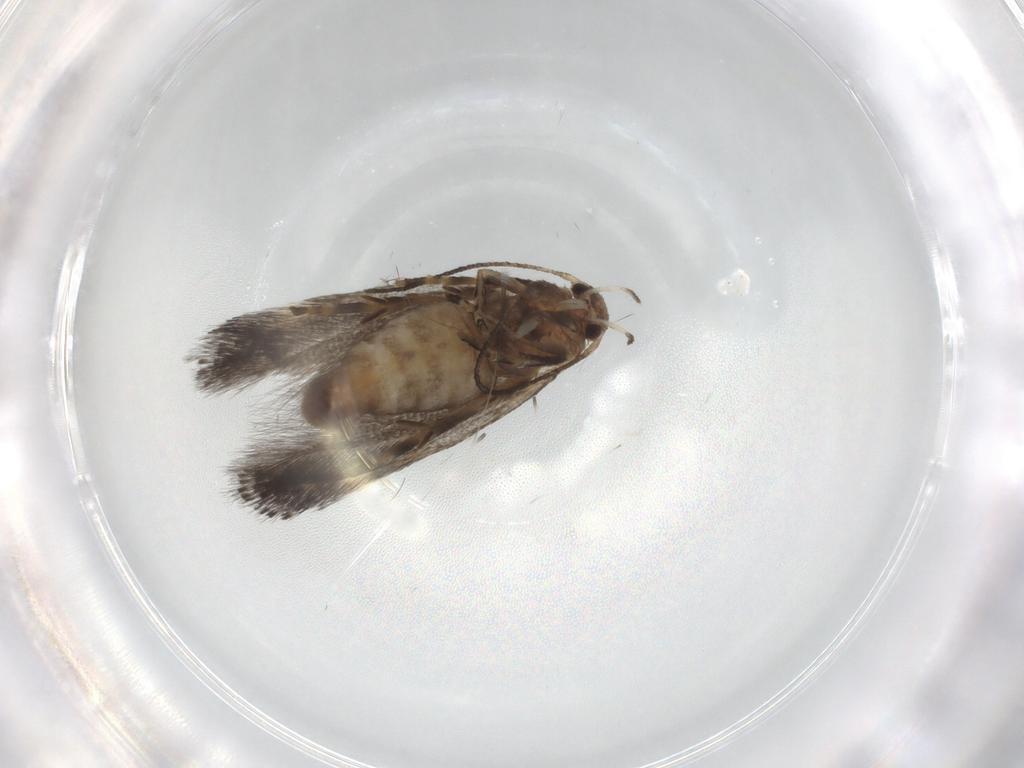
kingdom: Animalia
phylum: Arthropoda
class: Insecta
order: Lepidoptera
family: Elachistidae
